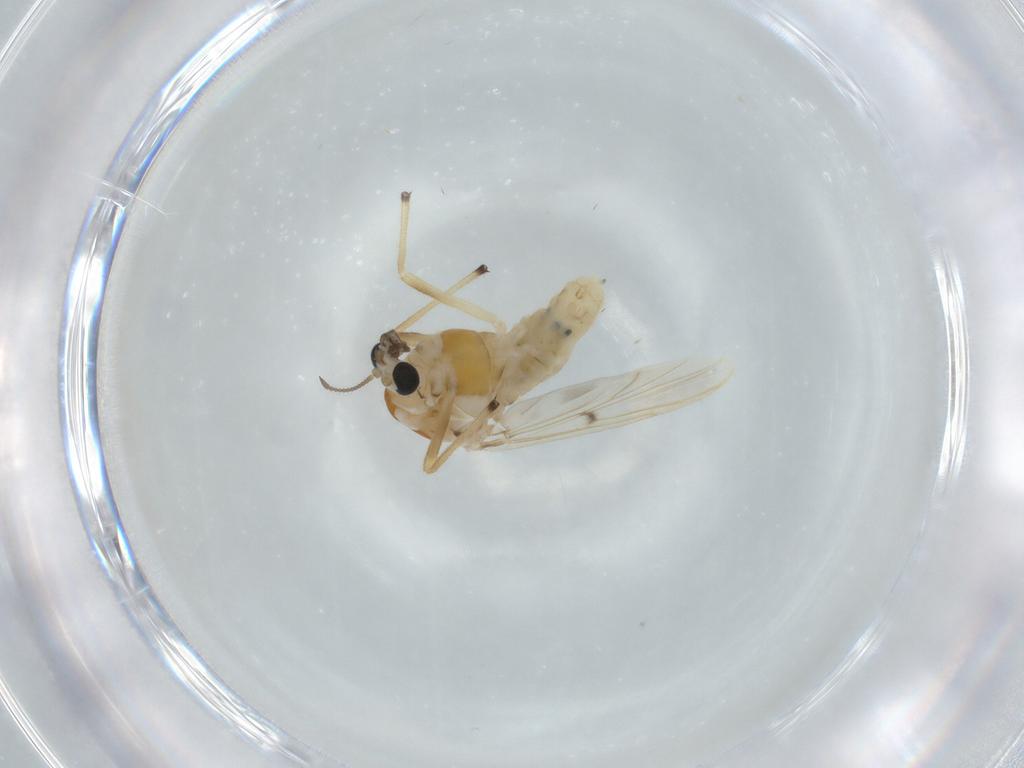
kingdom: Animalia
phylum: Arthropoda
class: Insecta
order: Diptera
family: Chironomidae
